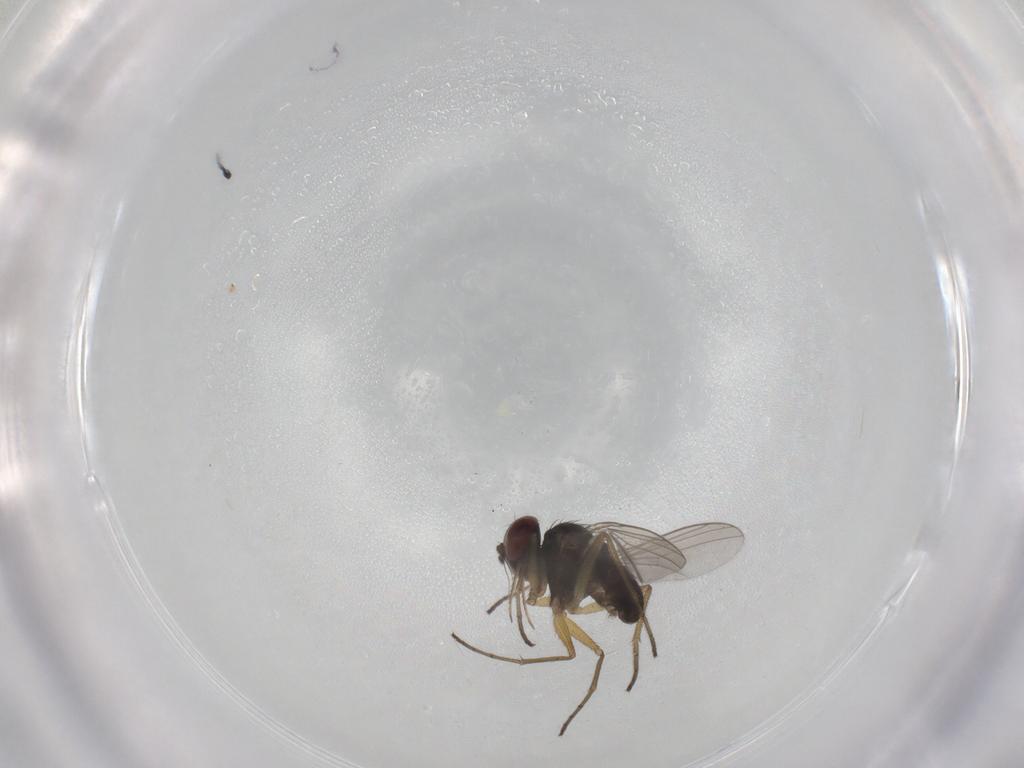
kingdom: Animalia
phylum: Arthropoda
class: Insecta
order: Diptera
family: Dolichopodidae
